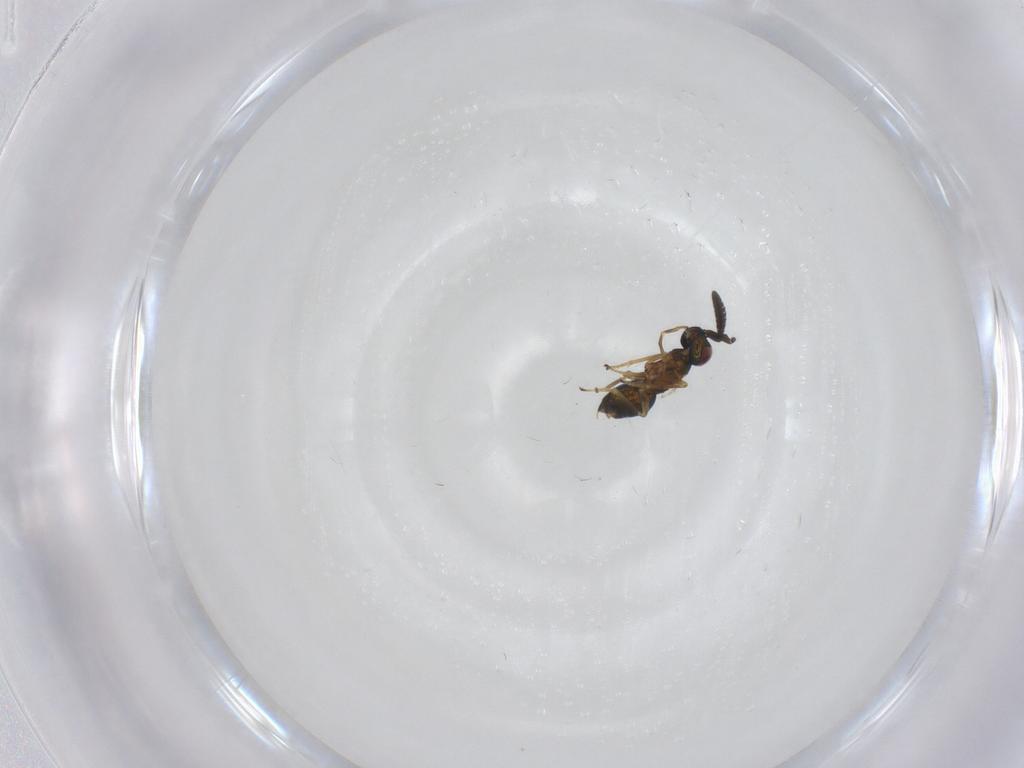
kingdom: Animalia
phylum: Arthropoda
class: Insecta
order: Hymenoptera
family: Encyrtidae
